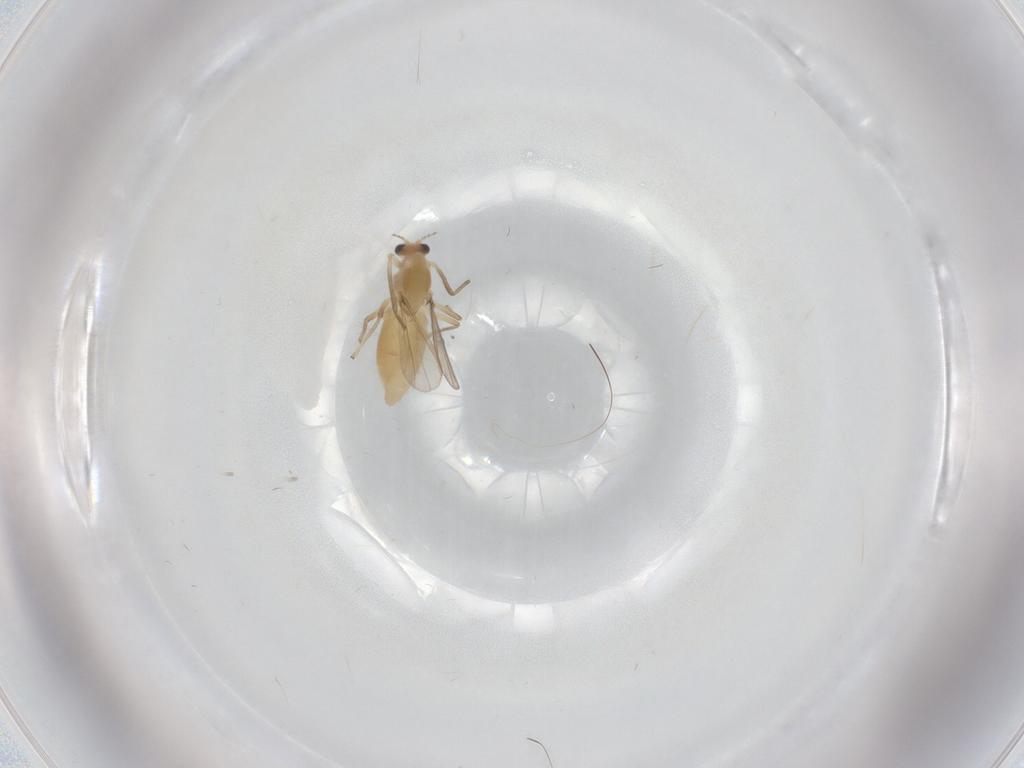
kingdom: Animalia
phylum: Arthropoda
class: Insecta
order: Diptera
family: Chironomidae
